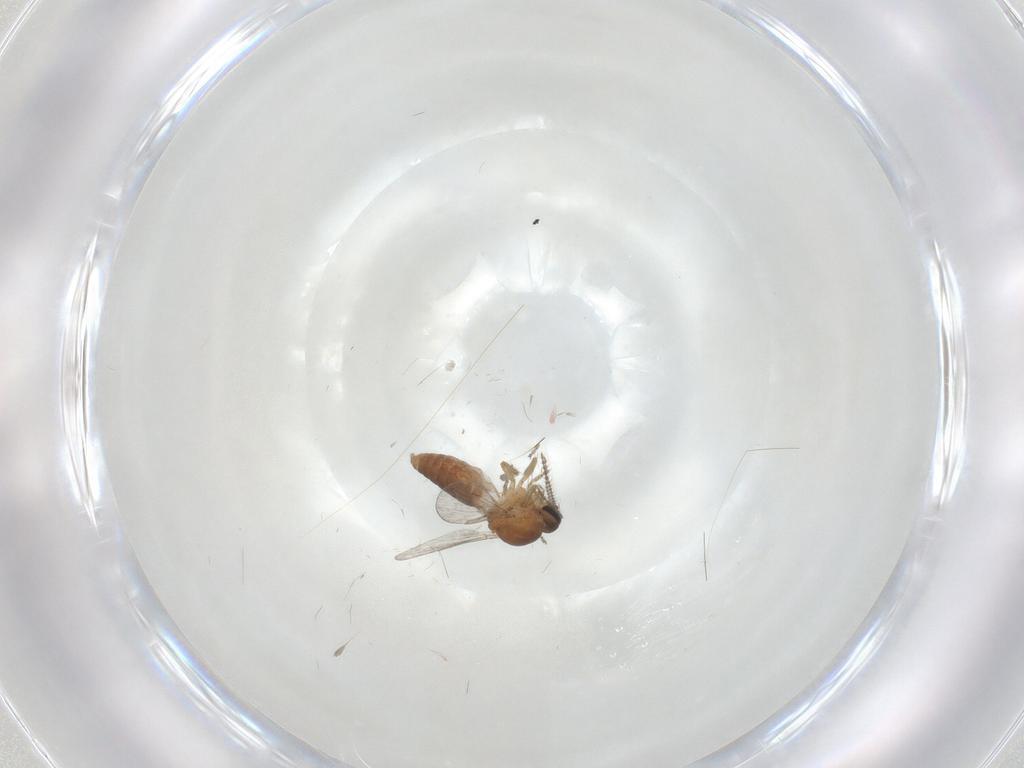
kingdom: Animalia
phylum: Arthropoda
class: Insecta
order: Diptera
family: Ceratopogonidae
